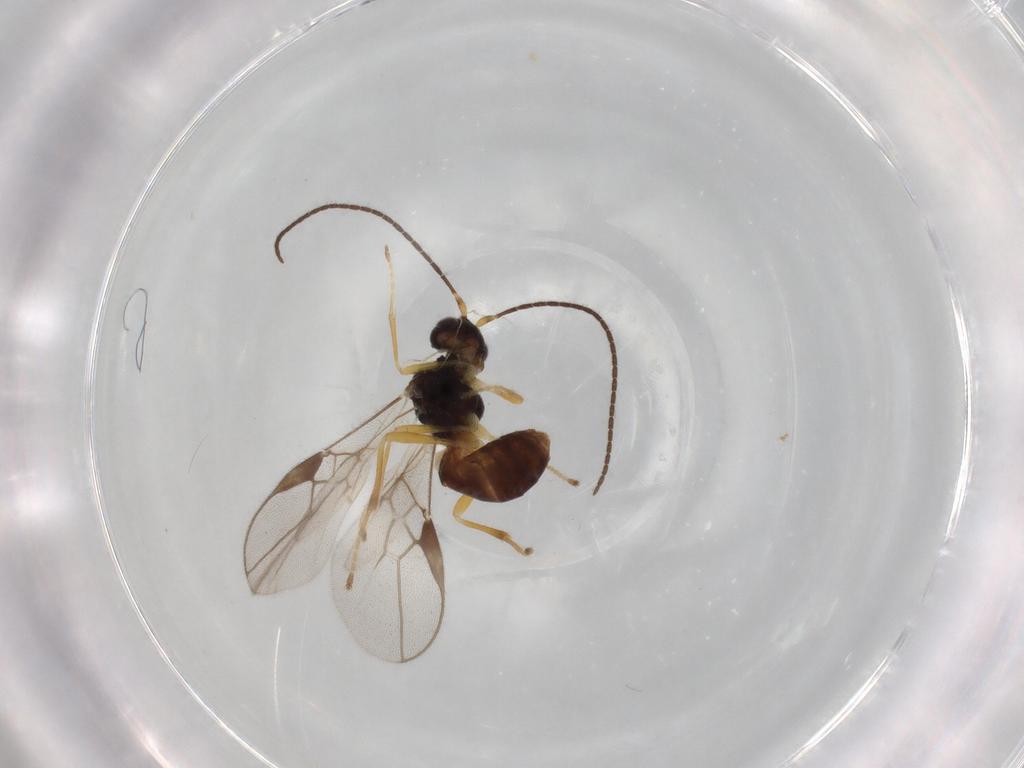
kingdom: Animalia
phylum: Arthropoda
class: Insecta
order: Hymenoptera
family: Braconidae
